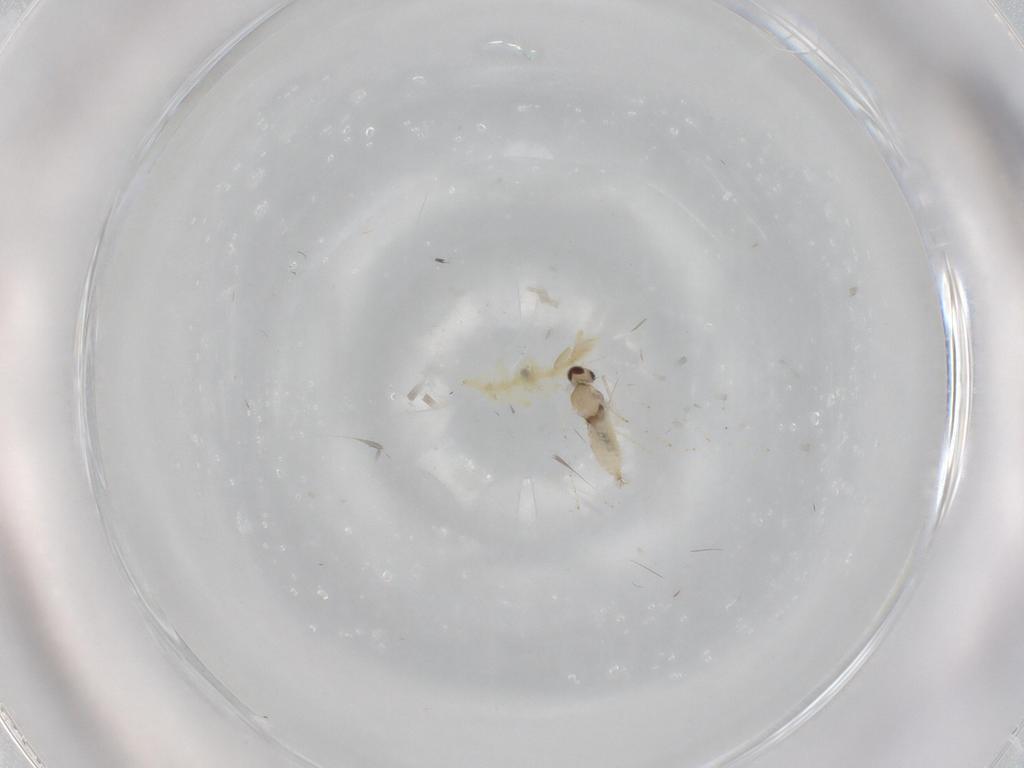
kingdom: Animalia
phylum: Arthropoda
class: Insecta
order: Diptera
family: Cecidomyiidae
